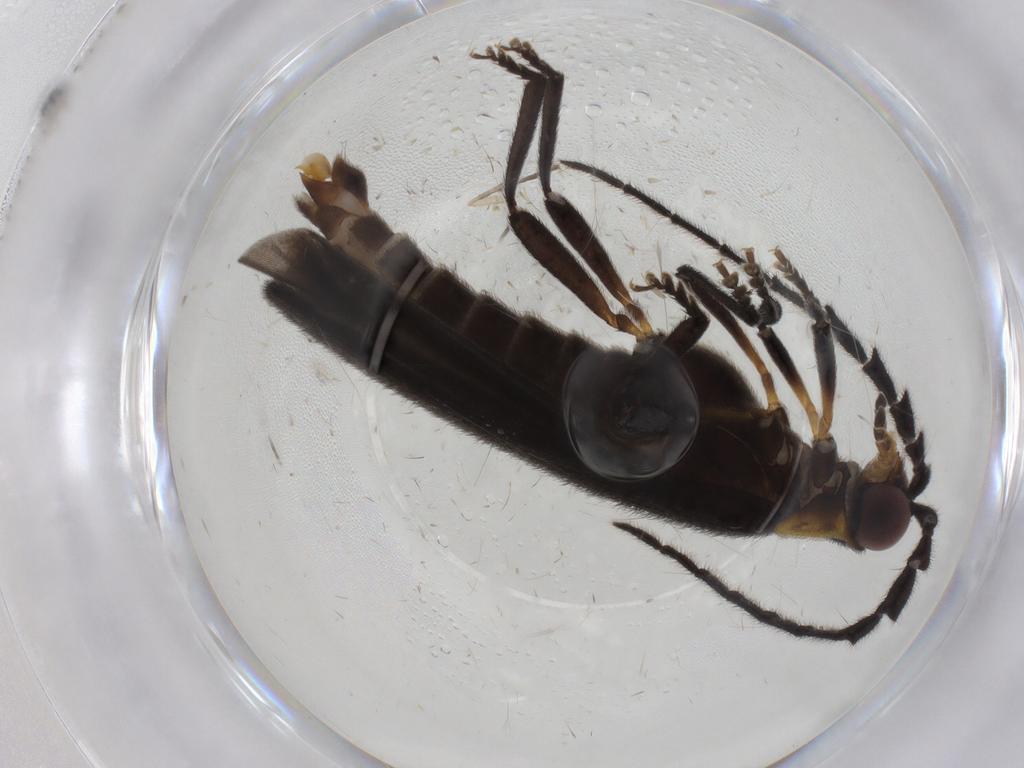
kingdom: Animalia
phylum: Arthropoda
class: Insecta
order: Coleoptera
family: Lycidae
